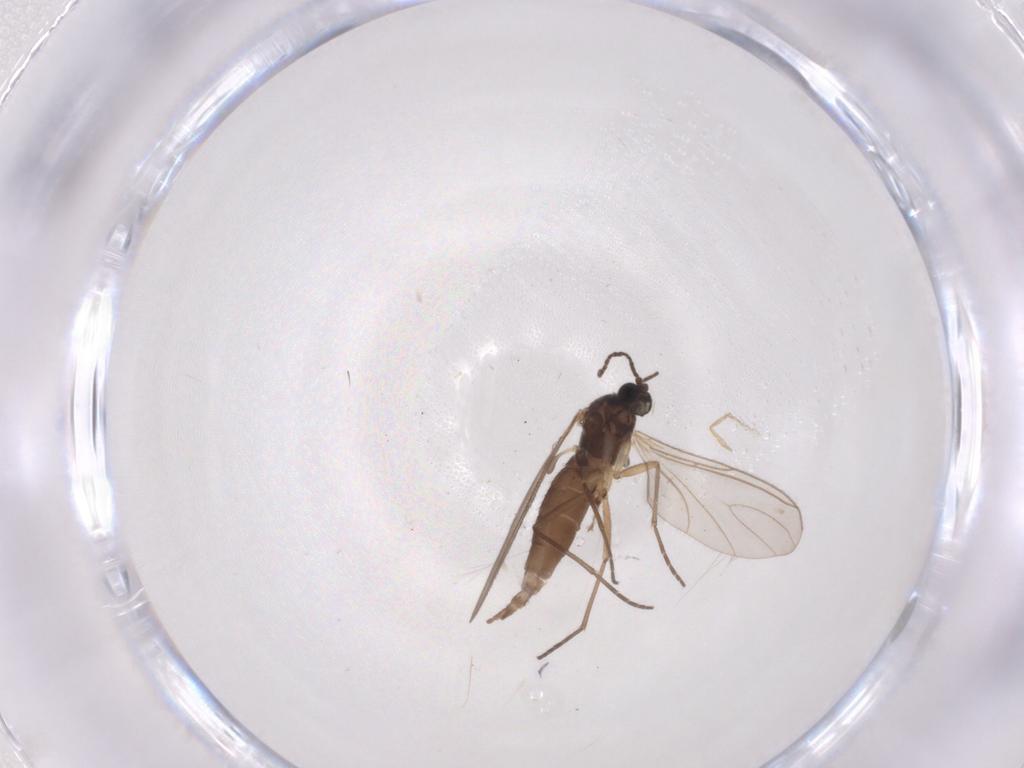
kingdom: Animalia
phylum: Arthropoda
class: Insecta
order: Diptera
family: Sciaridae
